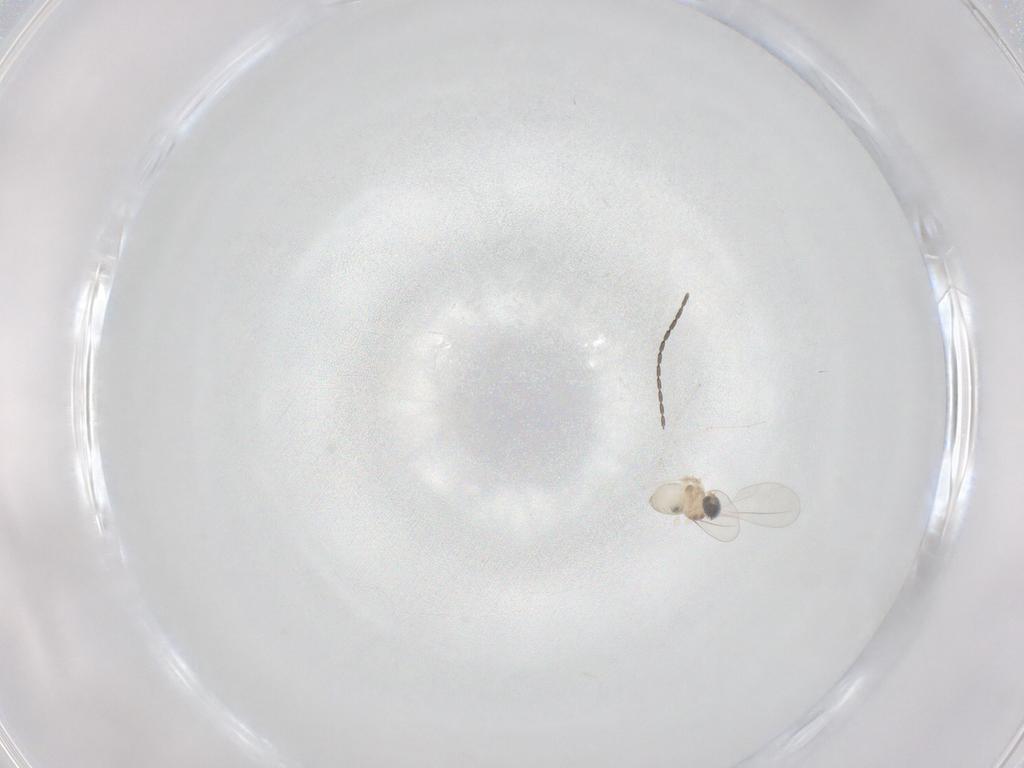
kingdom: Animalia
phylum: Arthropoda
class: Insecta
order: Diptera
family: Cecidomyiidae
